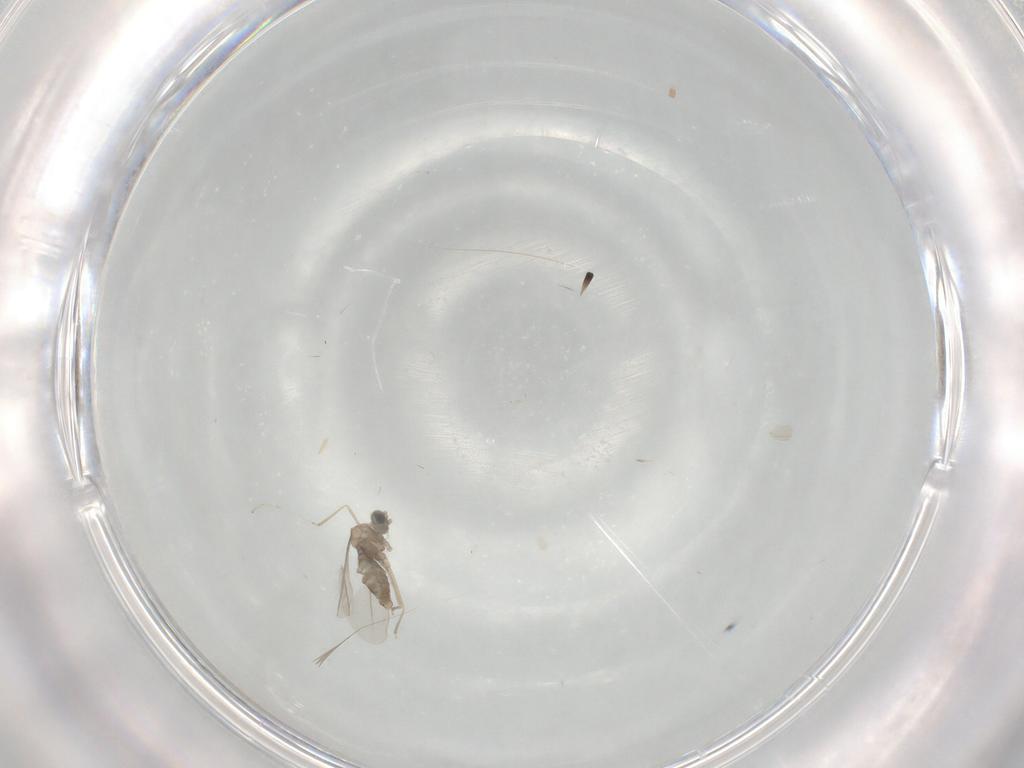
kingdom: Animalia
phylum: Arthropoda
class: Insecta
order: Diptera
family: Cecidomyiidae
